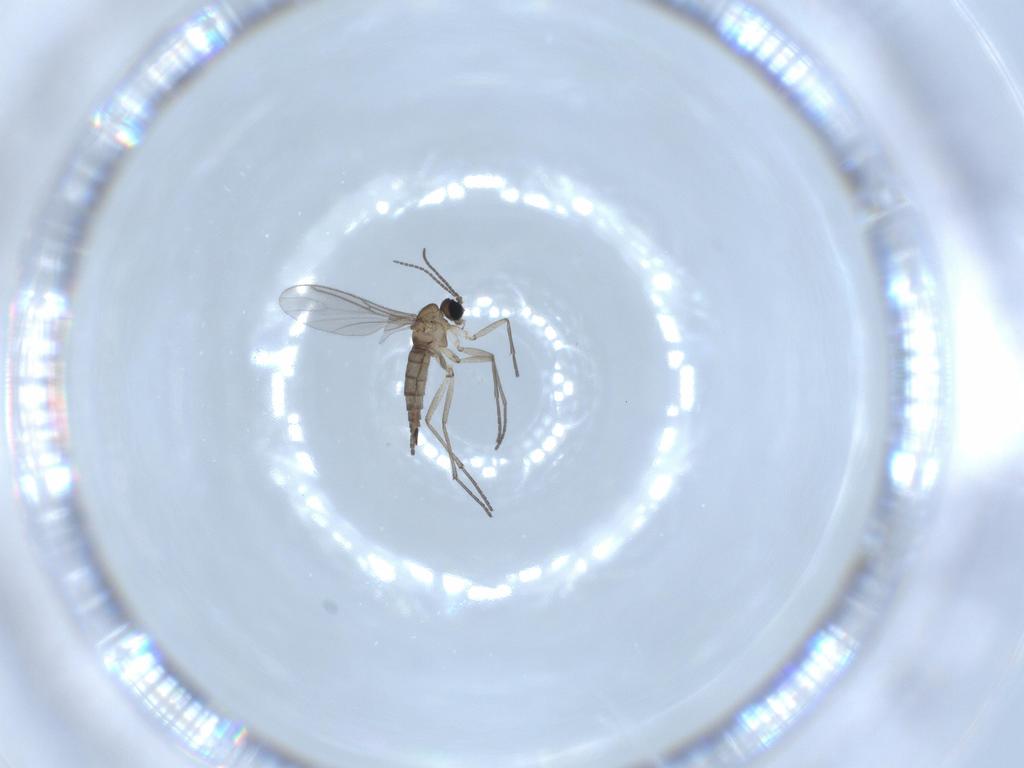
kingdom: Animalia
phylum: Arthropoda
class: Insecta
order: Diptera
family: Sciaridae
